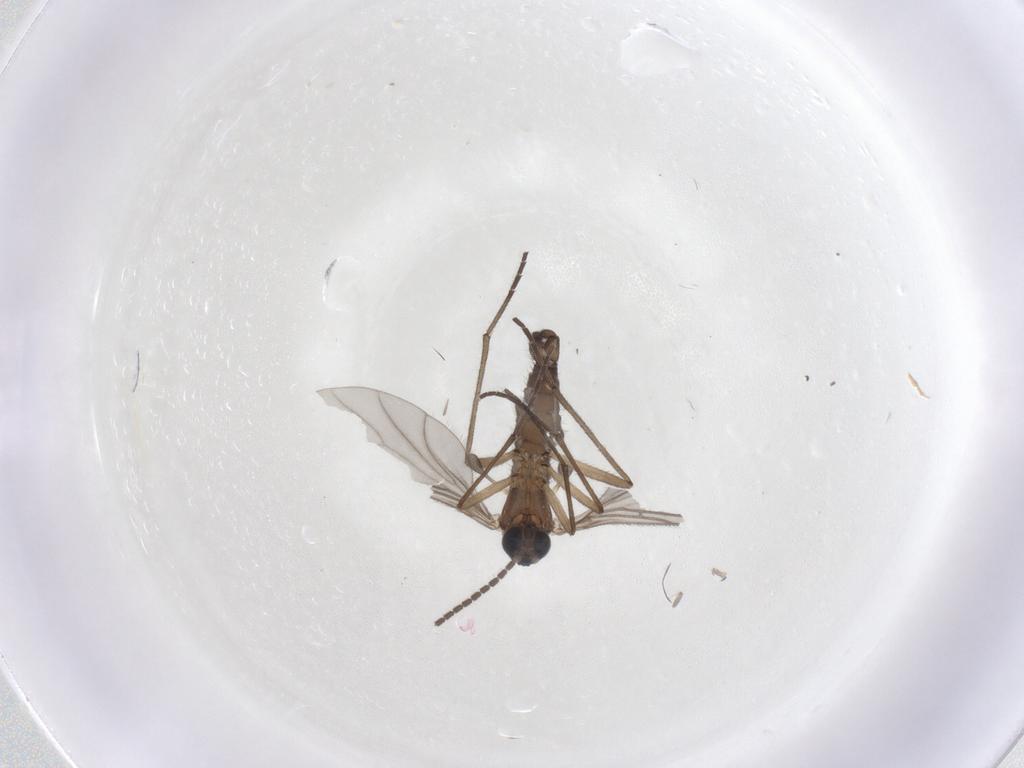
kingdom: Animalia
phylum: Arthropoda
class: Insecta
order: Diptera
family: Sciaridae
